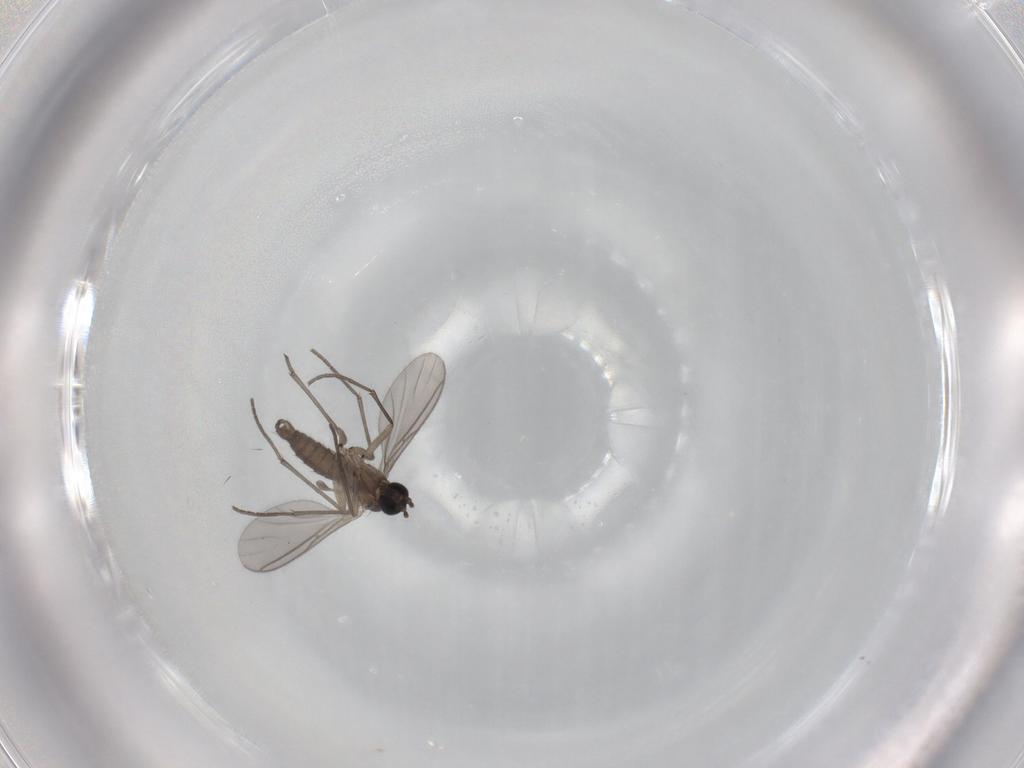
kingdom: Animalia
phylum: Arthropoda
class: Insecta
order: Diptera
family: Sciaridae
